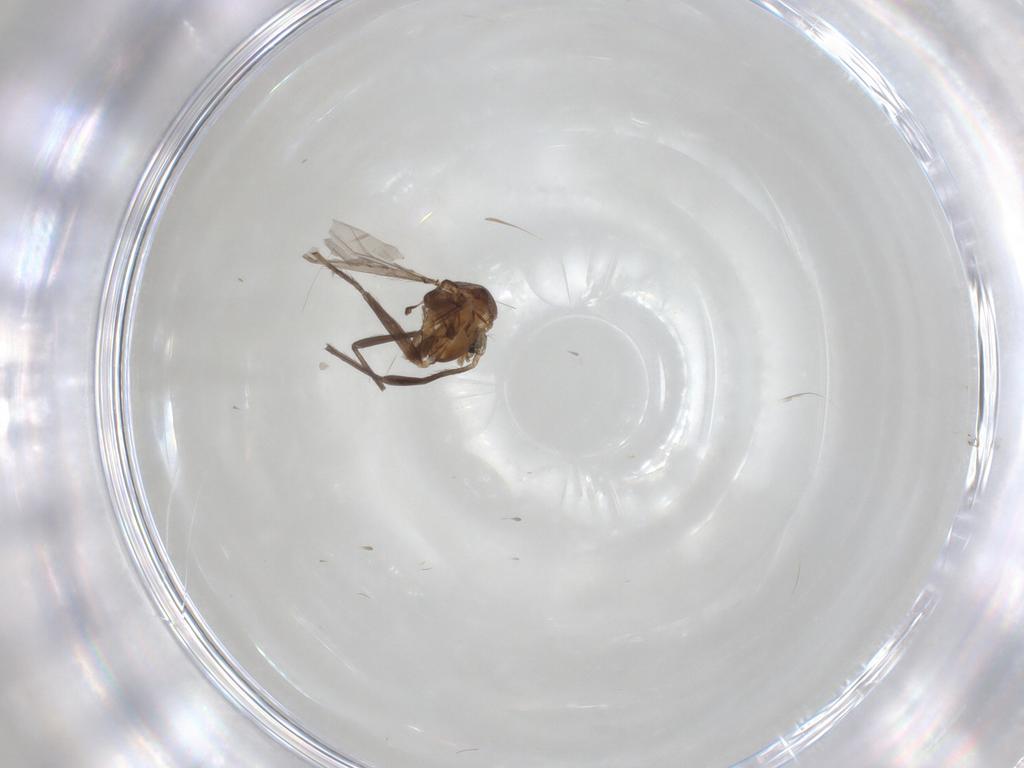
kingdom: Animalia
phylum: Arthropoda
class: Insecta
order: Diptera
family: Chironomidae
